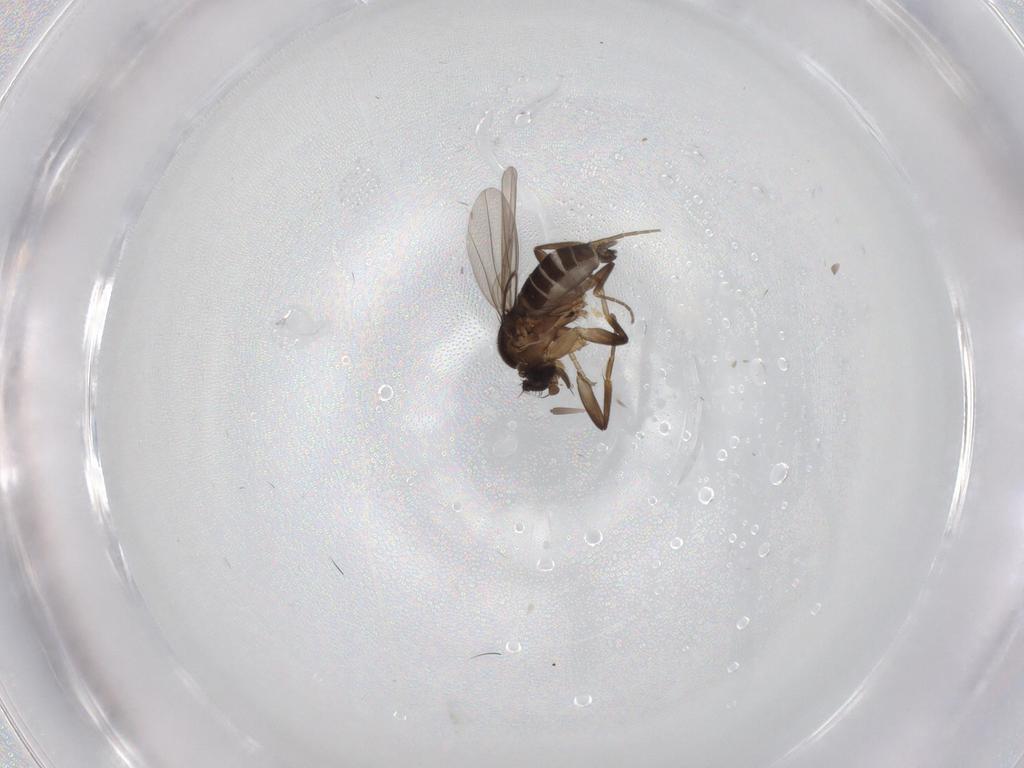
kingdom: Animalia
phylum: Arthropoda
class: Insecta
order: Diptera
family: Phoridae
